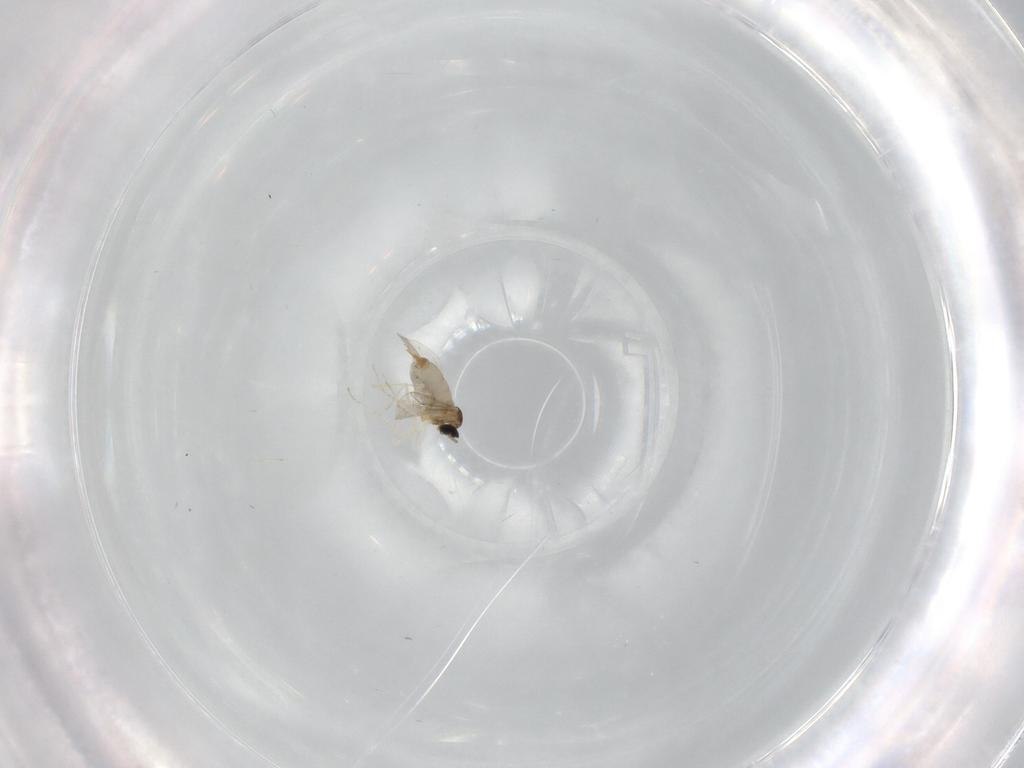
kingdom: Animalia
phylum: Arthropoda
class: Insecta
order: Diptera
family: Cecidomyiidae
